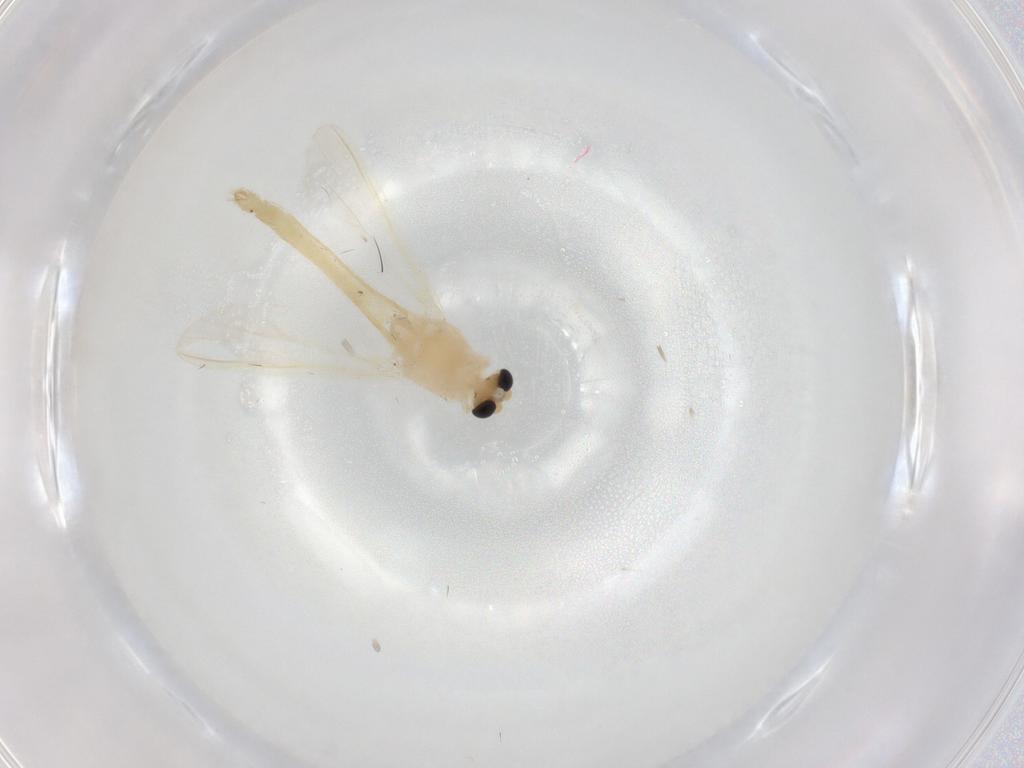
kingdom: Animalia
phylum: Arthropoda
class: Insecta
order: Diptera
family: Chironomidae
